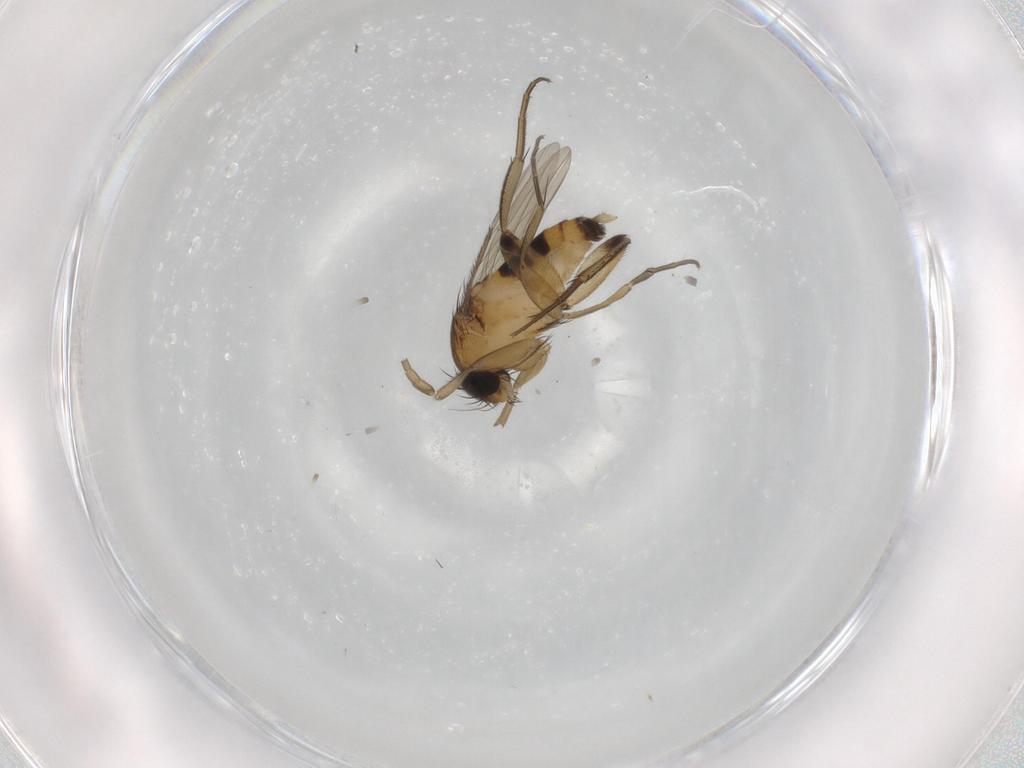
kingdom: Animalia
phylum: Arthropoda
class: Insecta
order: Diptera
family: Phoridae
